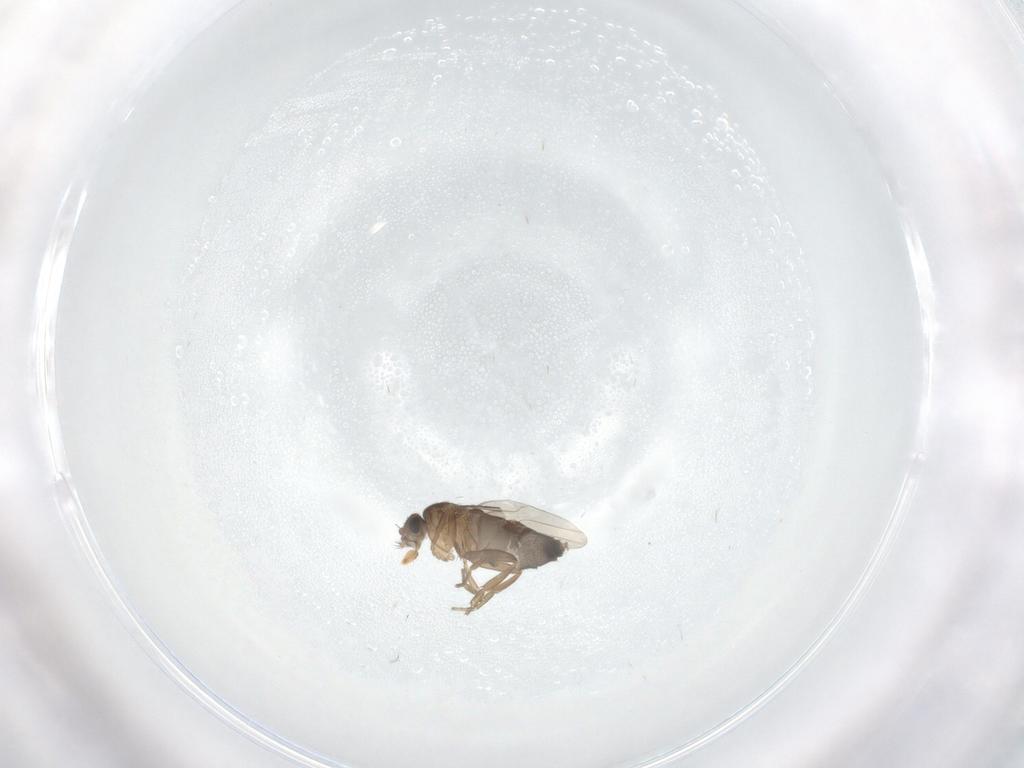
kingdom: Animalia
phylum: Arthropoda
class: Insecta
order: Diptera
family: Phoridae
